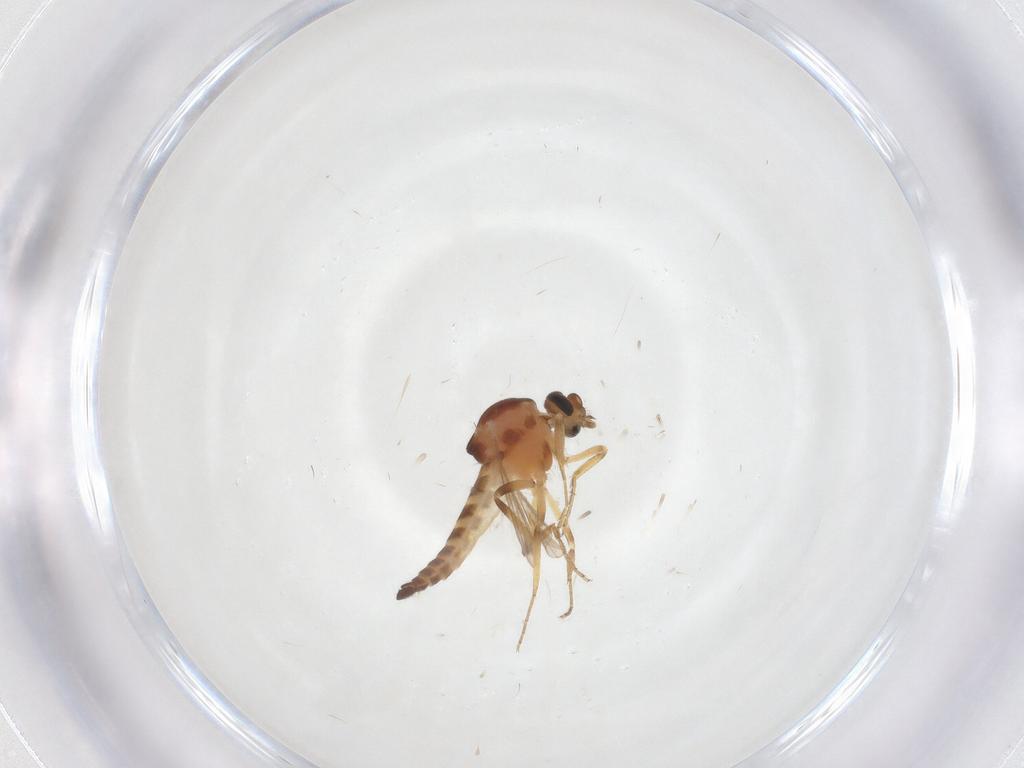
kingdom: Animalia
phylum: Arthropoda
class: Insecta
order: Diptera
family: Ceratopogonidae
